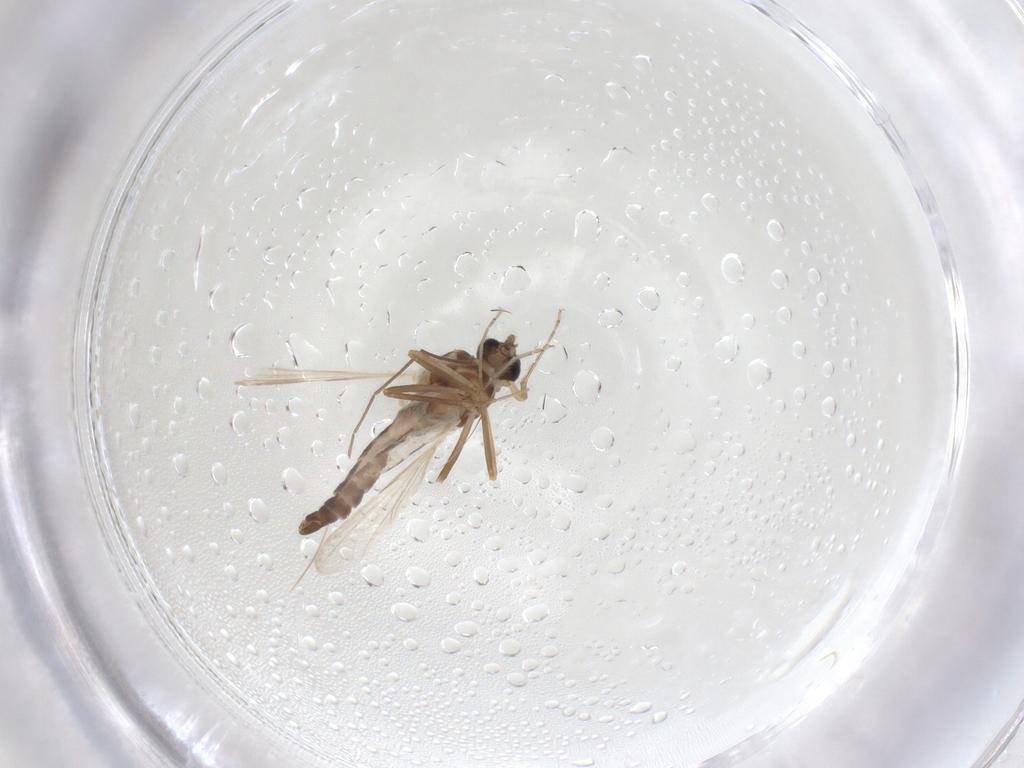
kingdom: Animalia
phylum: Arthropoda
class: Insecta
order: Diptera
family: Ceratopogonidae
